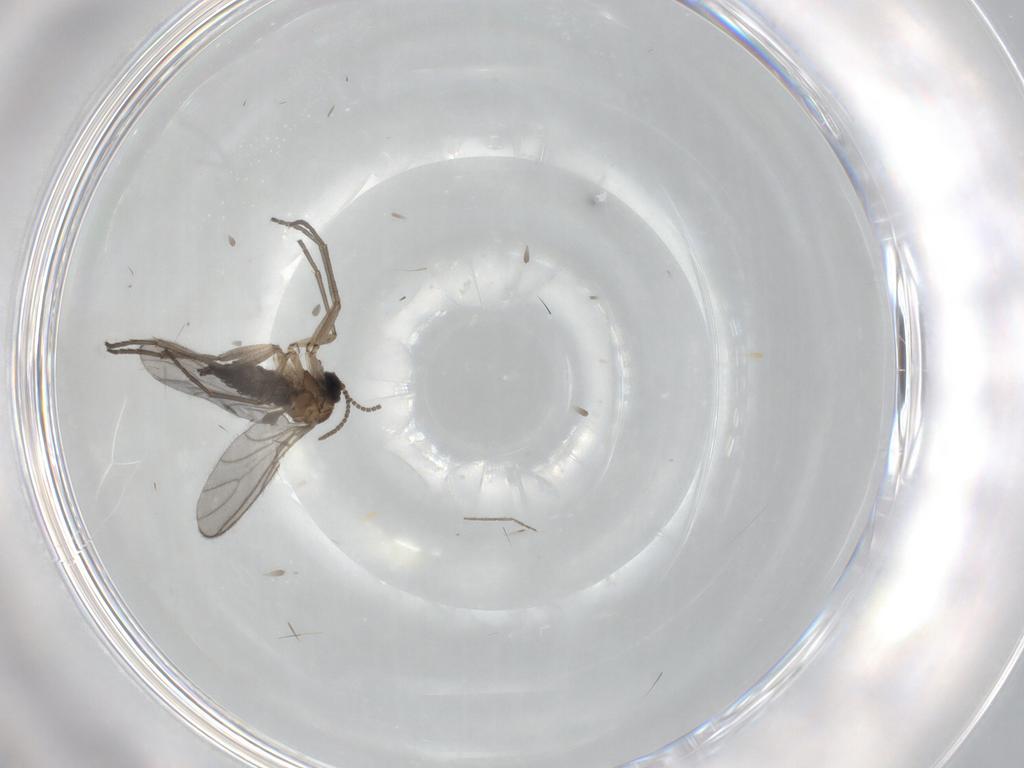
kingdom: Animalia
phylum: Arthropoda
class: Insecta
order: Diptera
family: Sciaridae
